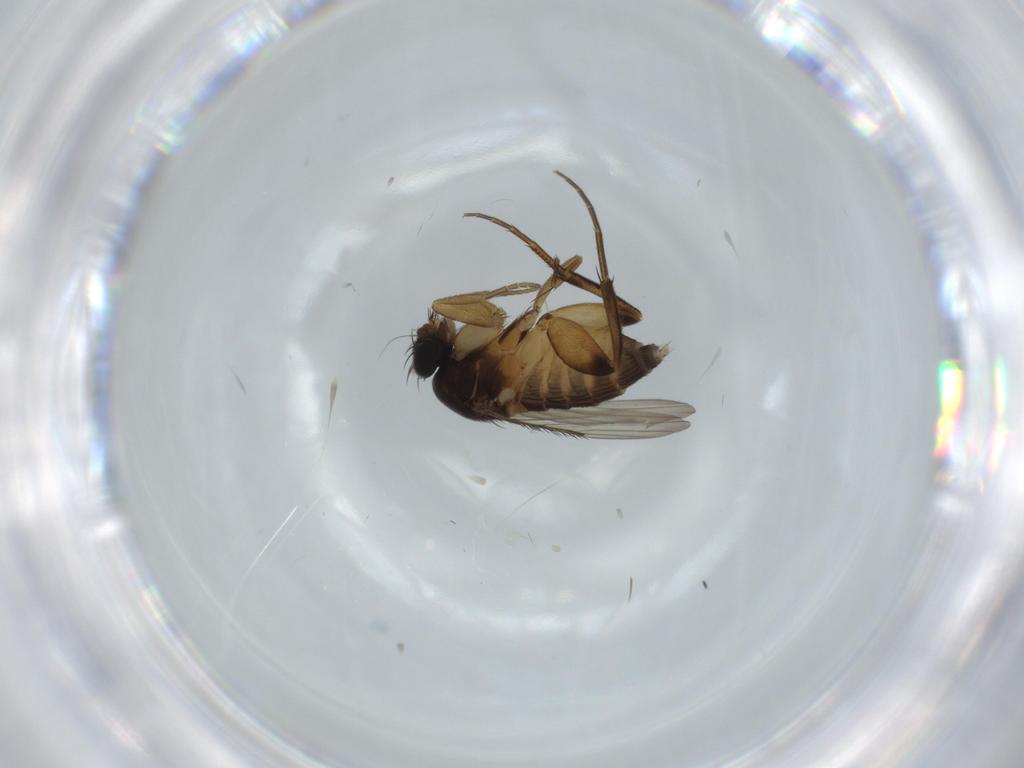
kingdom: Animalia
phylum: Arthropoda
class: Insecta
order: Diptera
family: Phoridae
